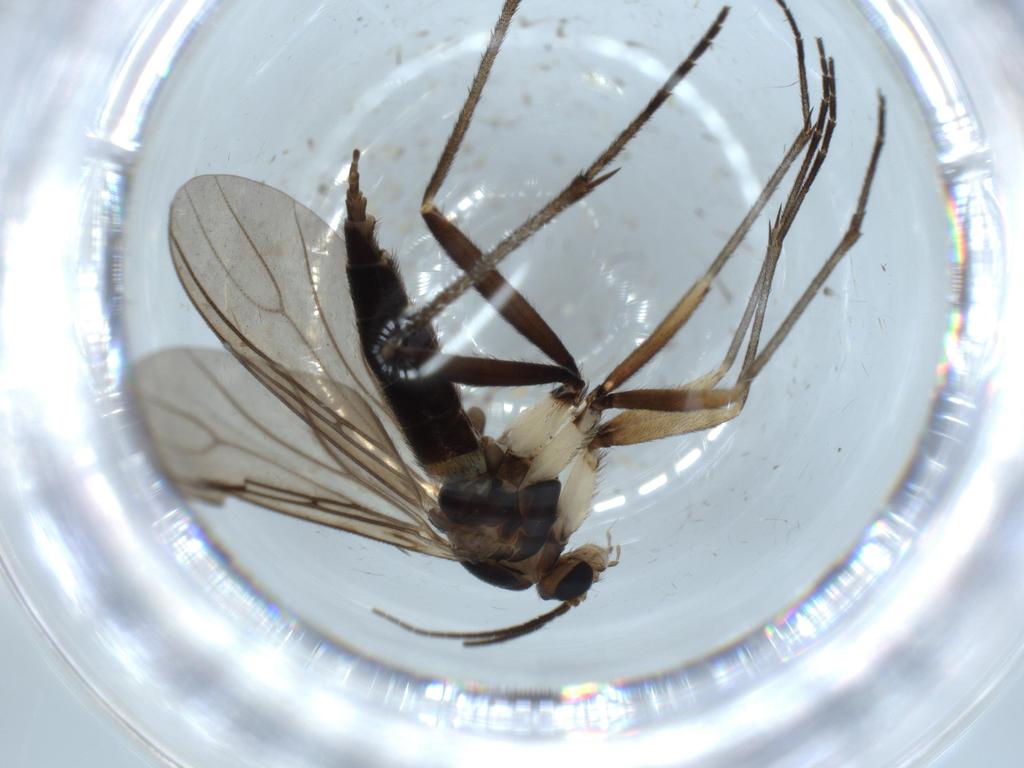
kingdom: Animalia
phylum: Arthropoda
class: Insecta
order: Diptera
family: Sciaridae
